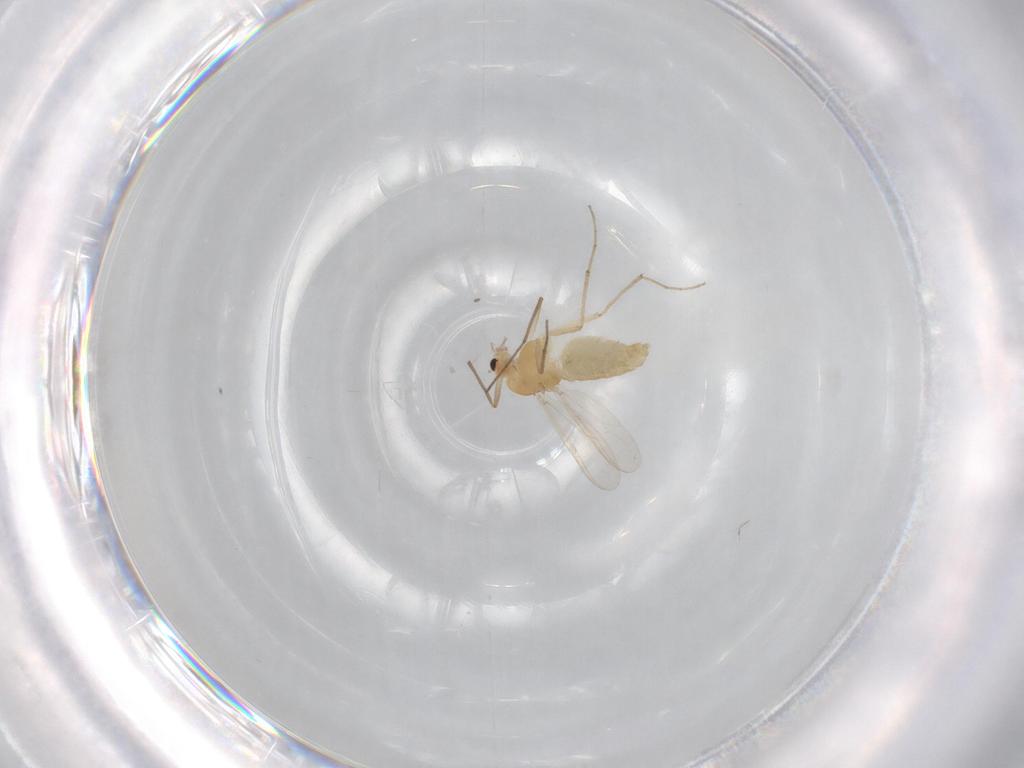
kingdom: Animalia
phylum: Arthropoda
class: Insecta
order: Diptera
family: Chironomidae
